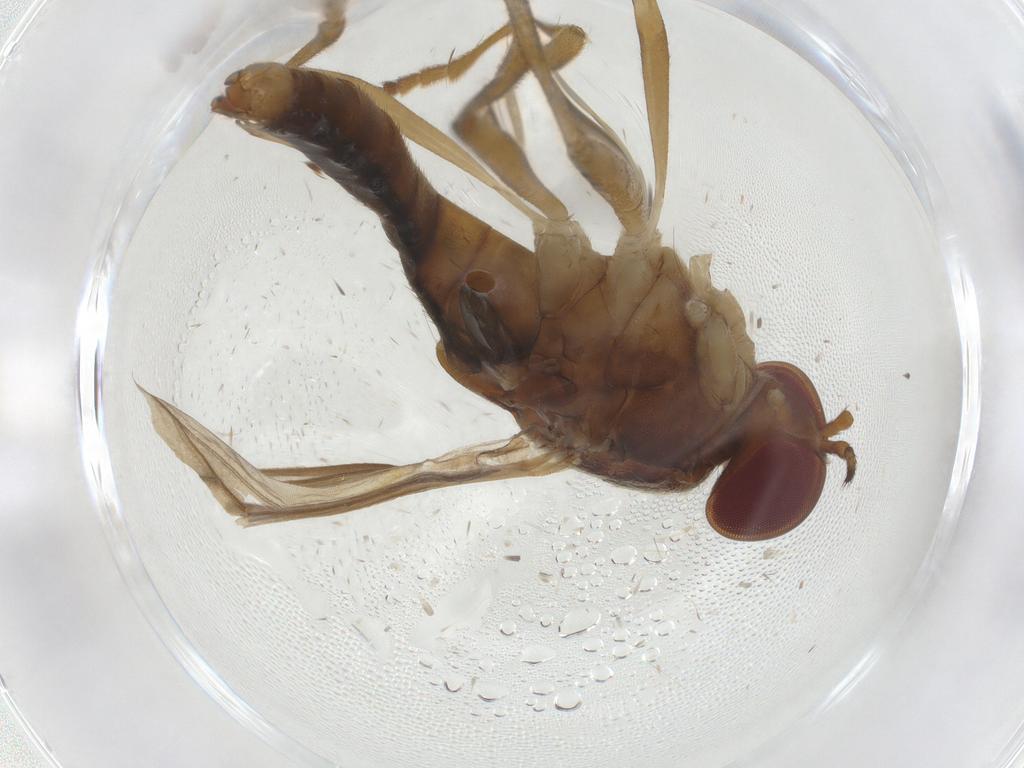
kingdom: Animalia
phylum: Arthropoda
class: Insecta
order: Diptera
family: Stratiomyidae
